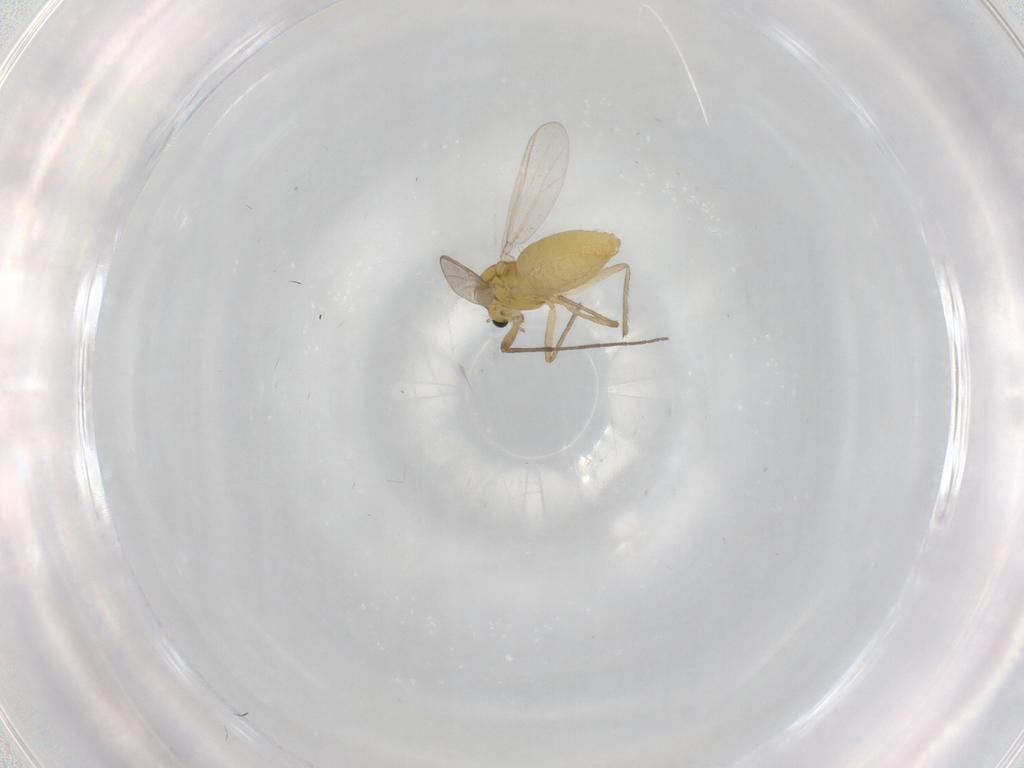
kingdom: Animalia
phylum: Arthropoda
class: Insecta
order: Diptera
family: Chironomidae
